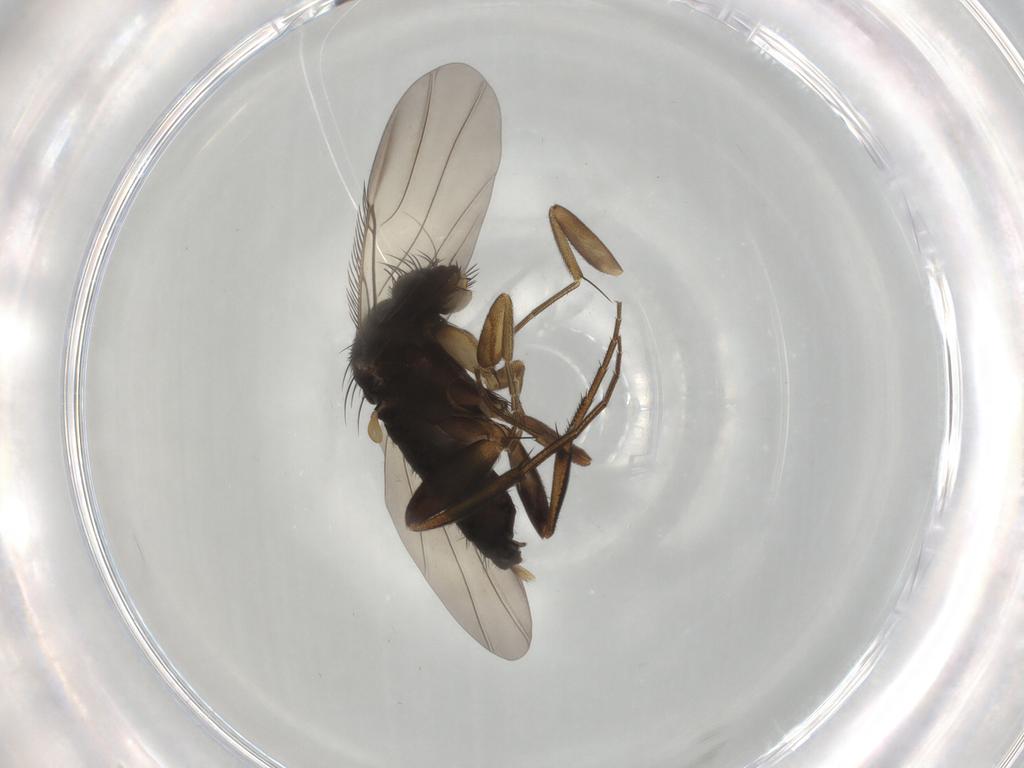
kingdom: Animalia
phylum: Arthropoda
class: Insecta
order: Diptera
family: Phoridae
